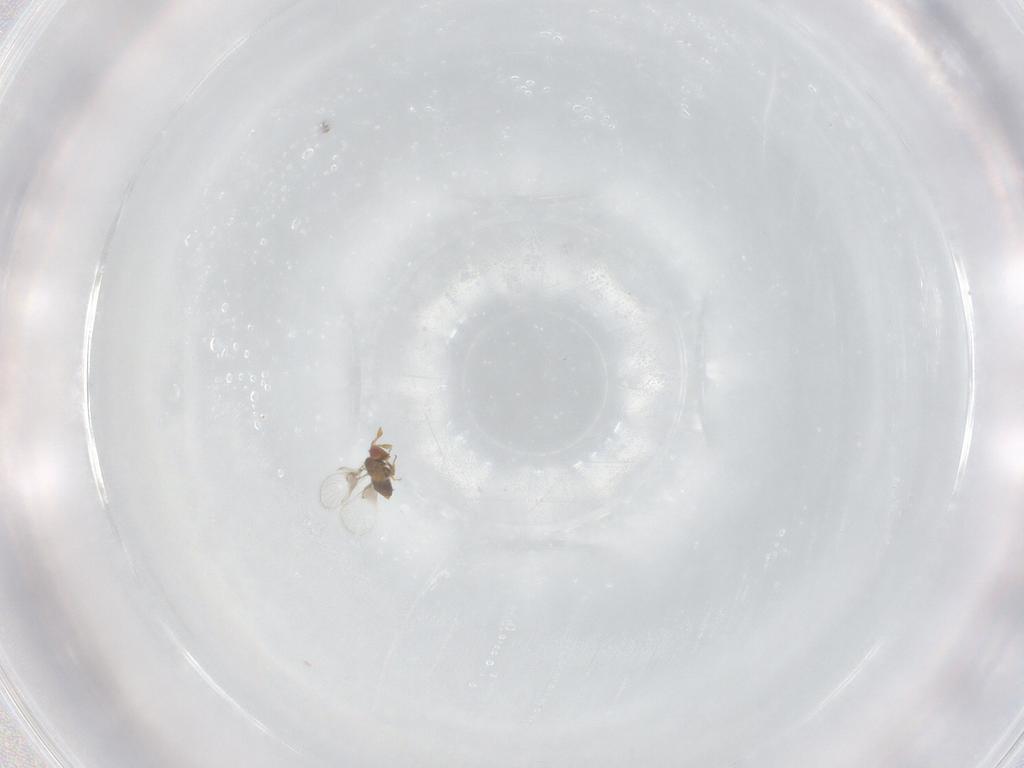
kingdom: Animalia
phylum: Arthropoda
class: Insecta
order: Hymenoptera
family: Trichogrammatidae
